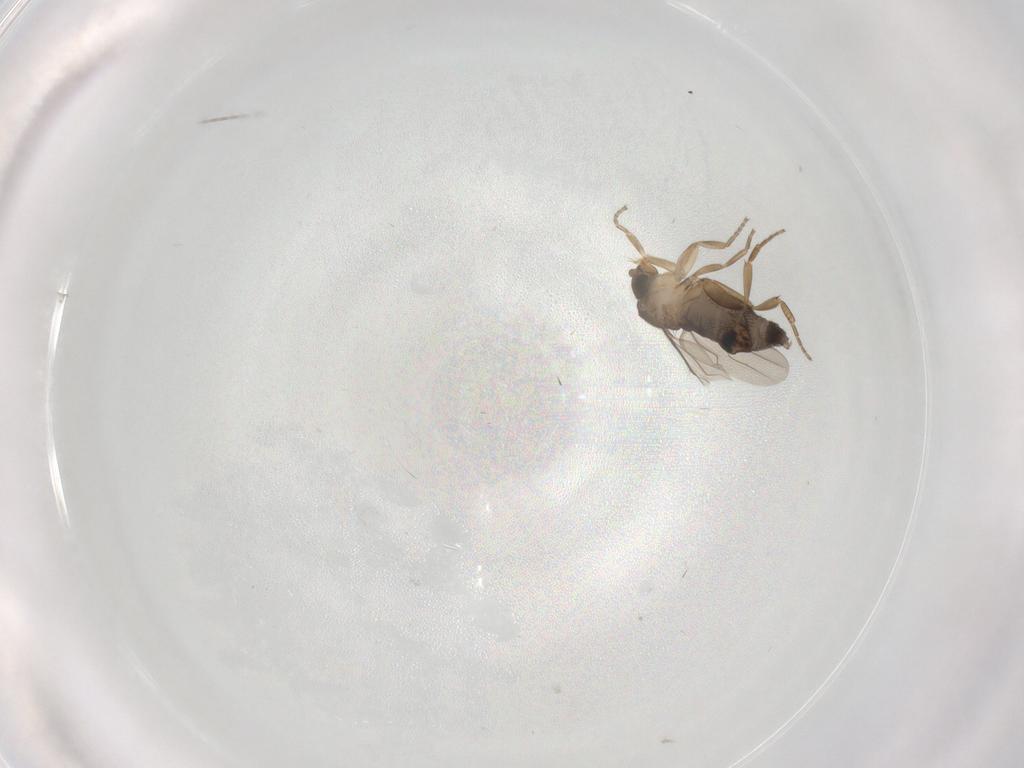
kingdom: Animalia
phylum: Arthropoda
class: Insecta
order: Diptera
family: Phoridae
